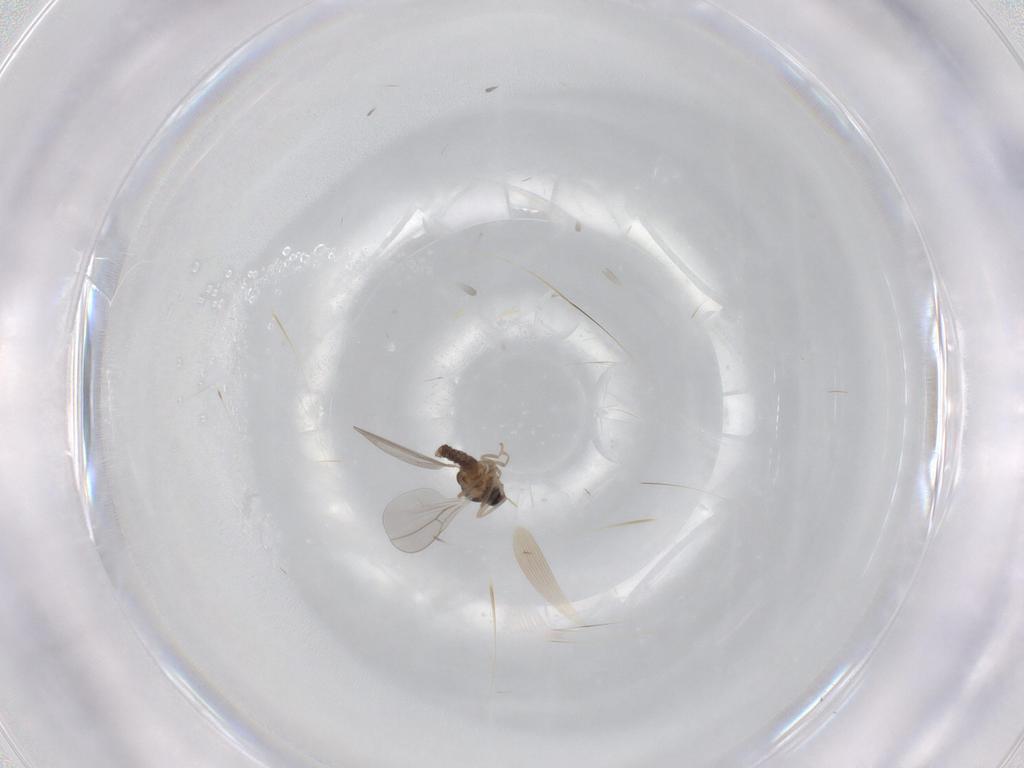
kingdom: Animalia
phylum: Arthropoda
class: Insecta
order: Diptera
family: Cecidomyiidae
